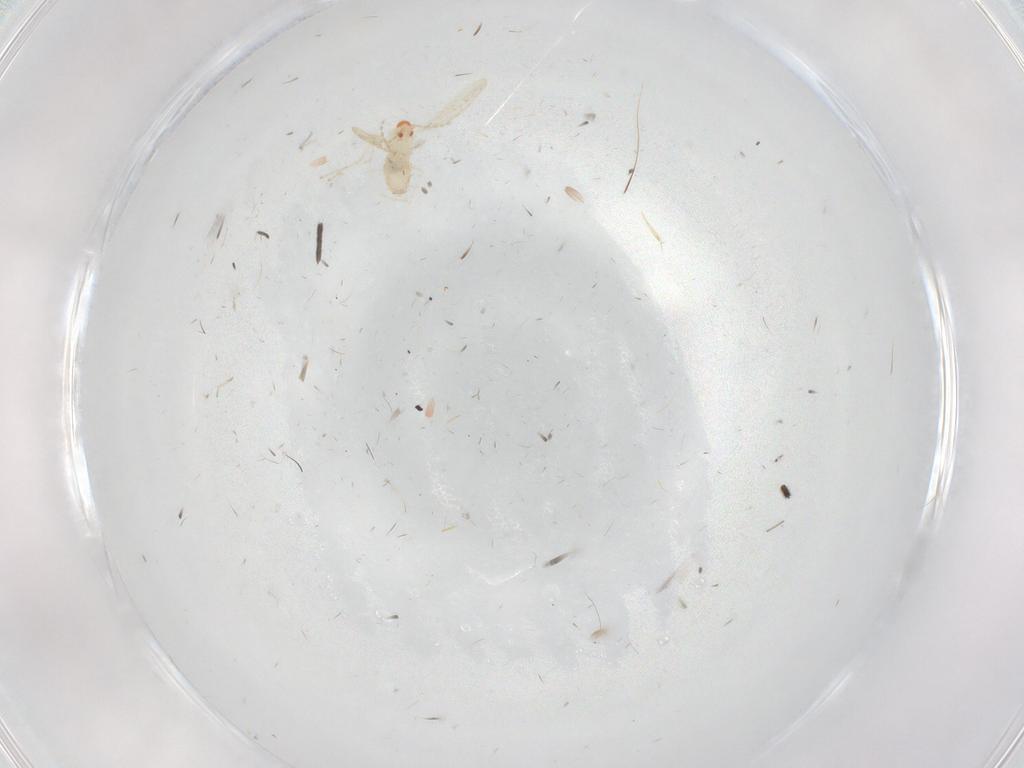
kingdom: Animalia
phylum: Arthropoda
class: Insecta
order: Diptera
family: Cecidomyiidae
